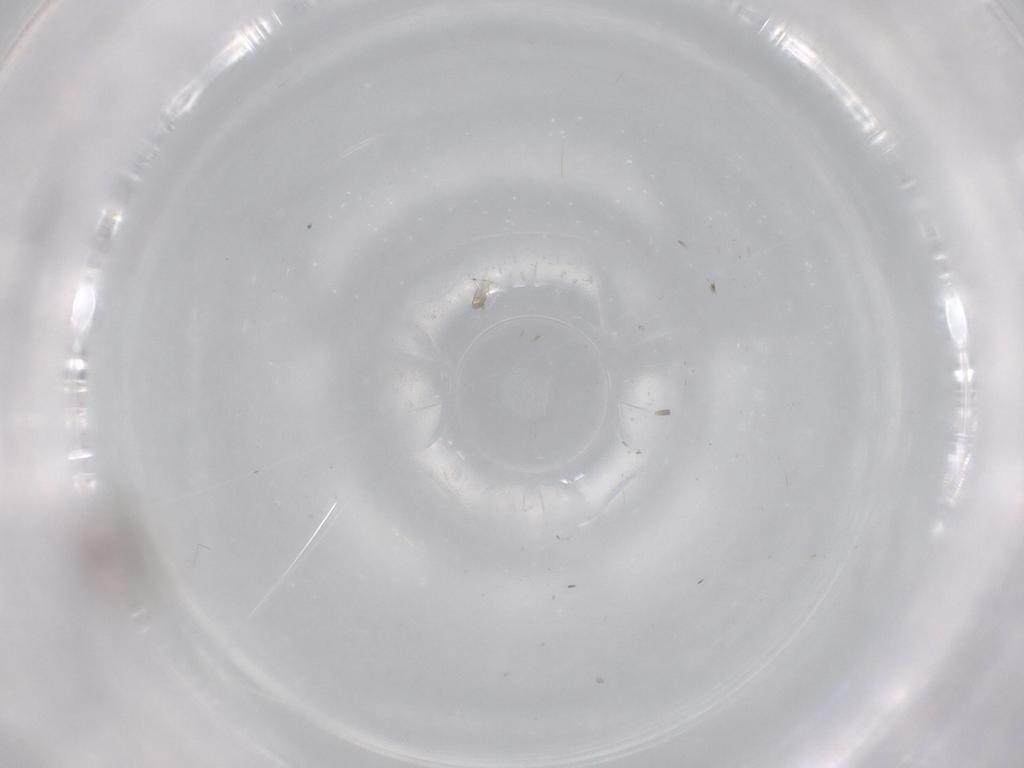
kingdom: Animalia
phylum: Arthropoda
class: Insecta
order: Diptera
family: Chironomidae
